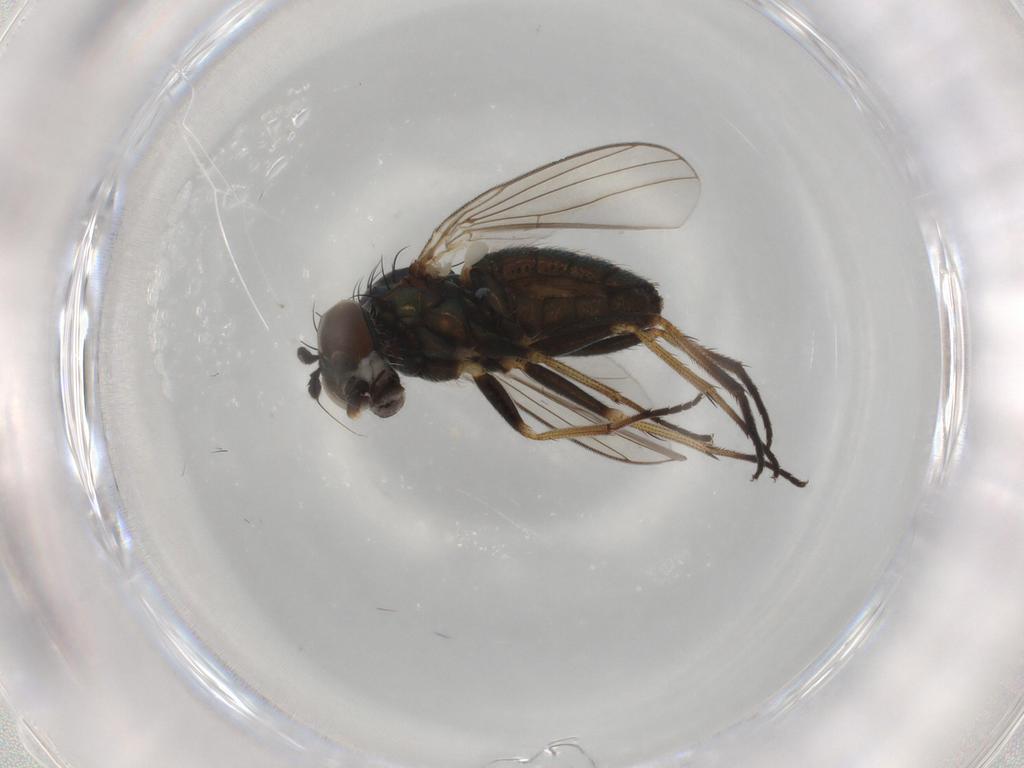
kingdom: Animalia
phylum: Arthropoda
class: Insecta
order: Diptera
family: Dolichopodidae
